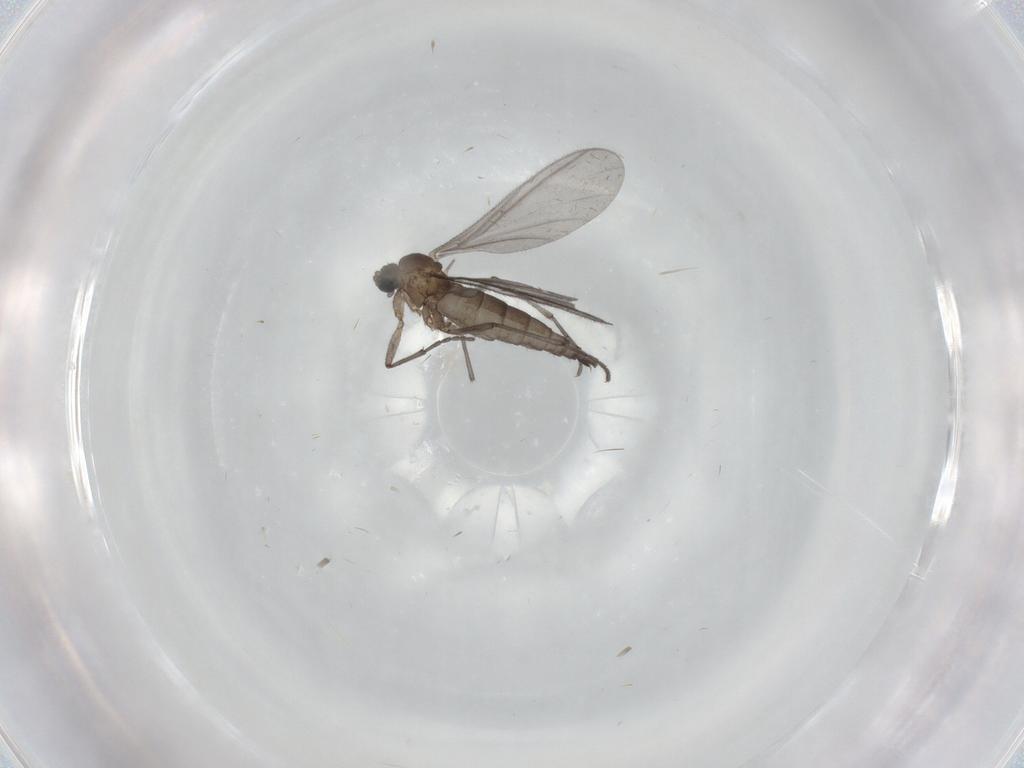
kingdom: Animalia
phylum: Arthropoda
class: Insecta
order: Diptera
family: Sciaridae
